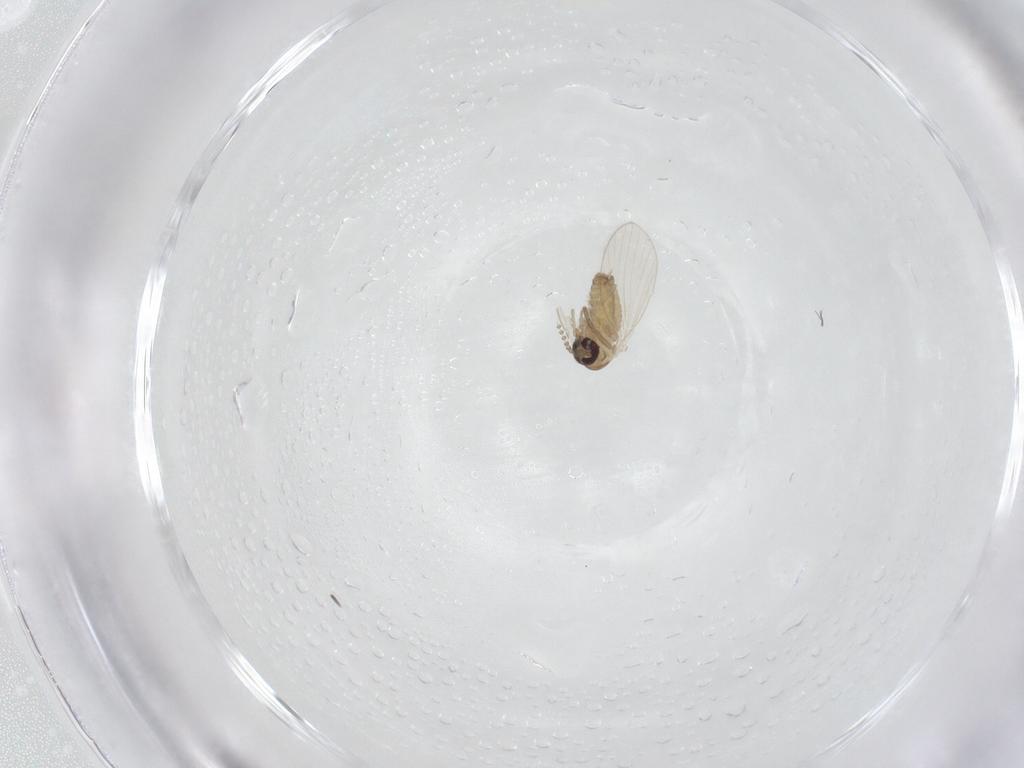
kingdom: Animalia
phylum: Arthropoda
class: Insecta
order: Diptera
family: Psychodidae
